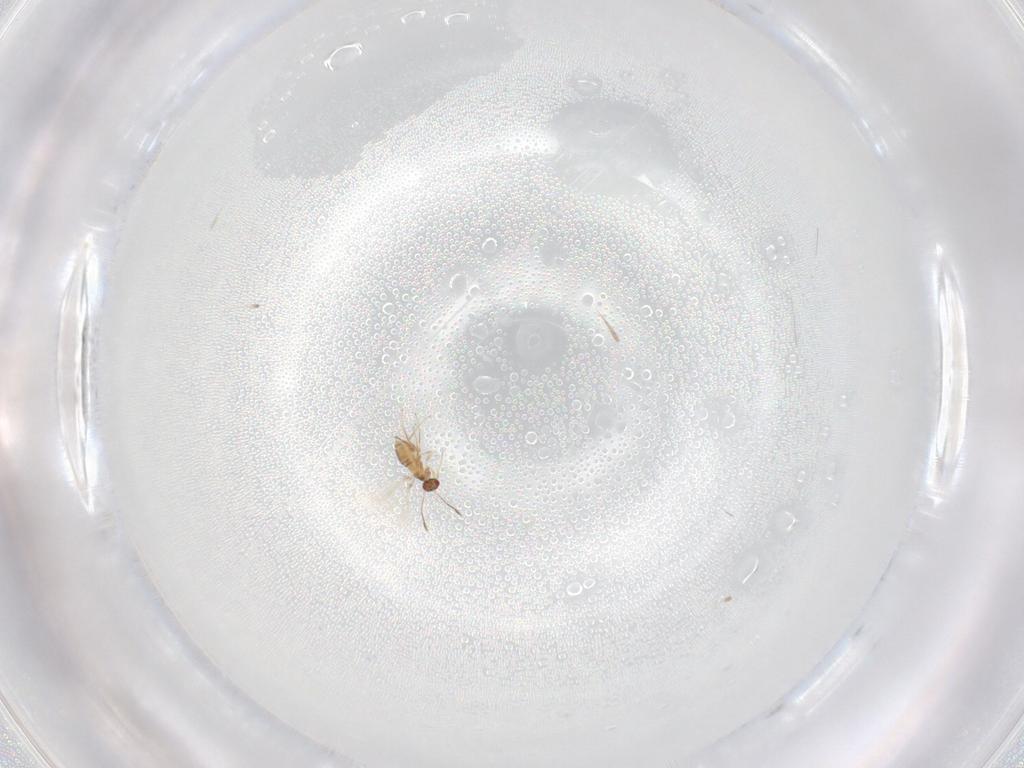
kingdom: Animalia
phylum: Arthropoda
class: Insecta
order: Hymenoptera
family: Mymaridae
